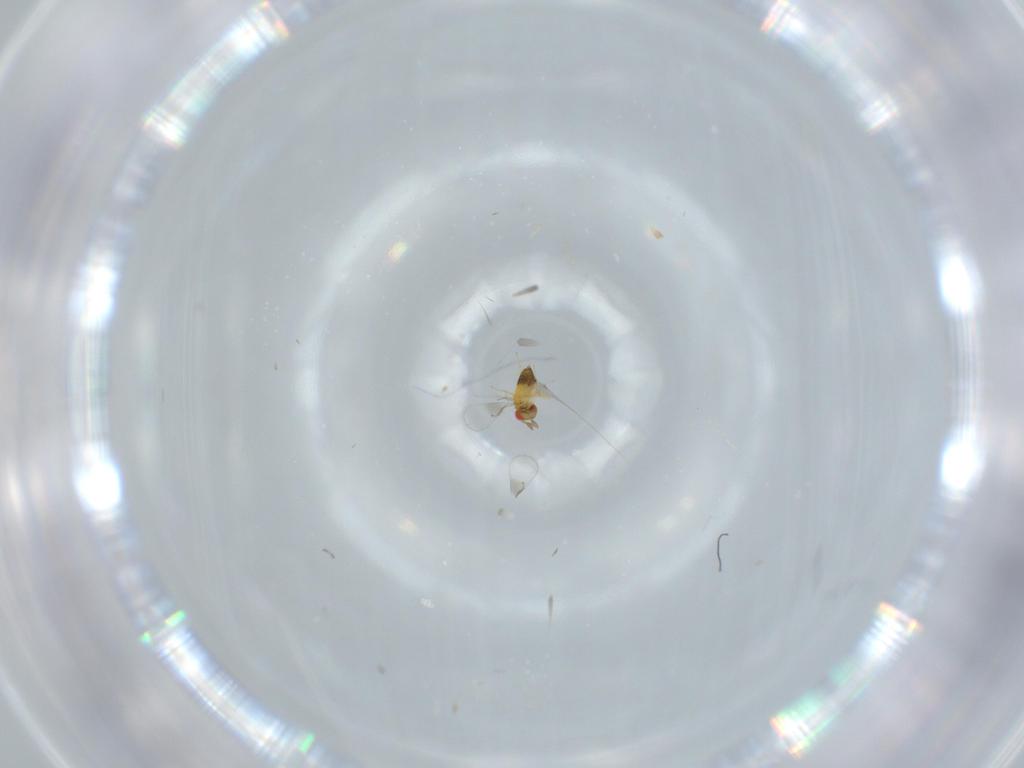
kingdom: Animalia
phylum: Arthropoda
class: Insecta
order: Hymenoptera
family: Trichogrammatidae
